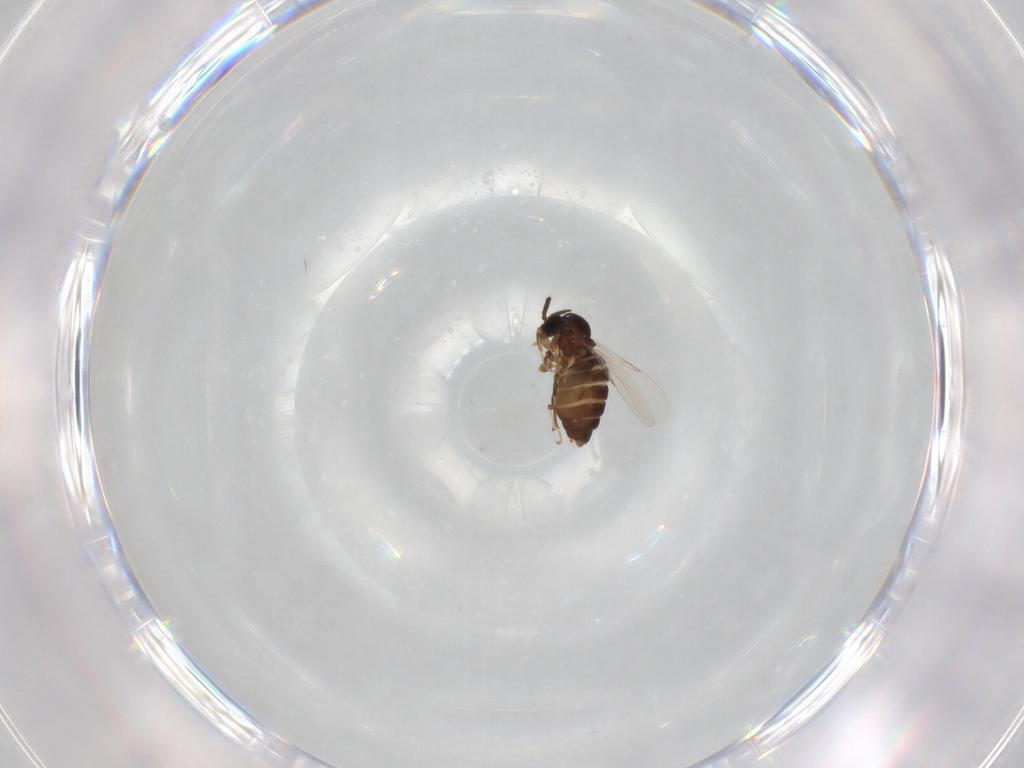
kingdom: Animalia
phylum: Arthropoda
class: Insecta
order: Diptera
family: Scatopsidae
